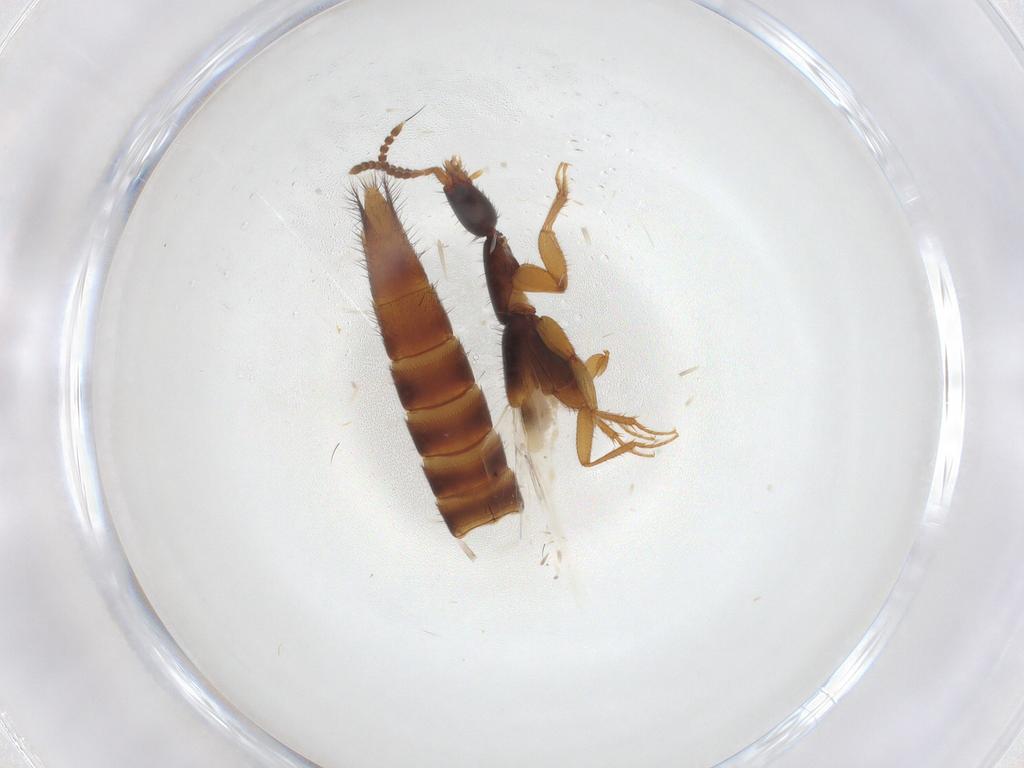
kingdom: Animalia
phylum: Arthropoda
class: Insecta
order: Coleoptera
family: Staphylinidae
